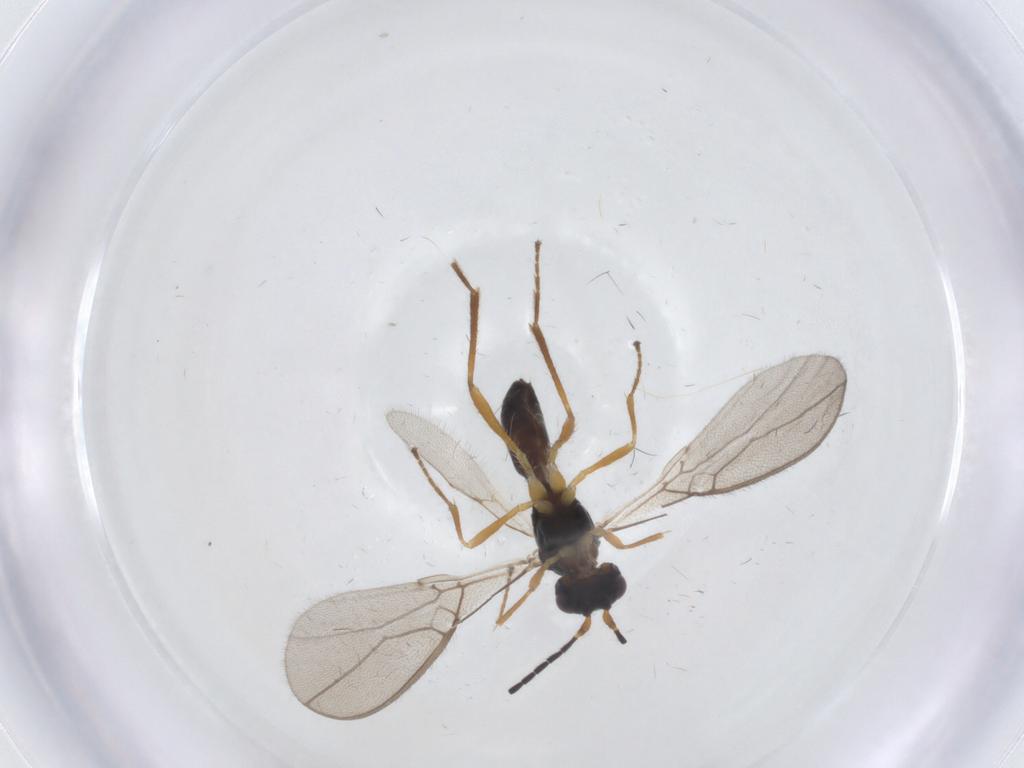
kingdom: Animalia
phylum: Arthropoda
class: Insecta
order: Hymenoptera
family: Braconidae
